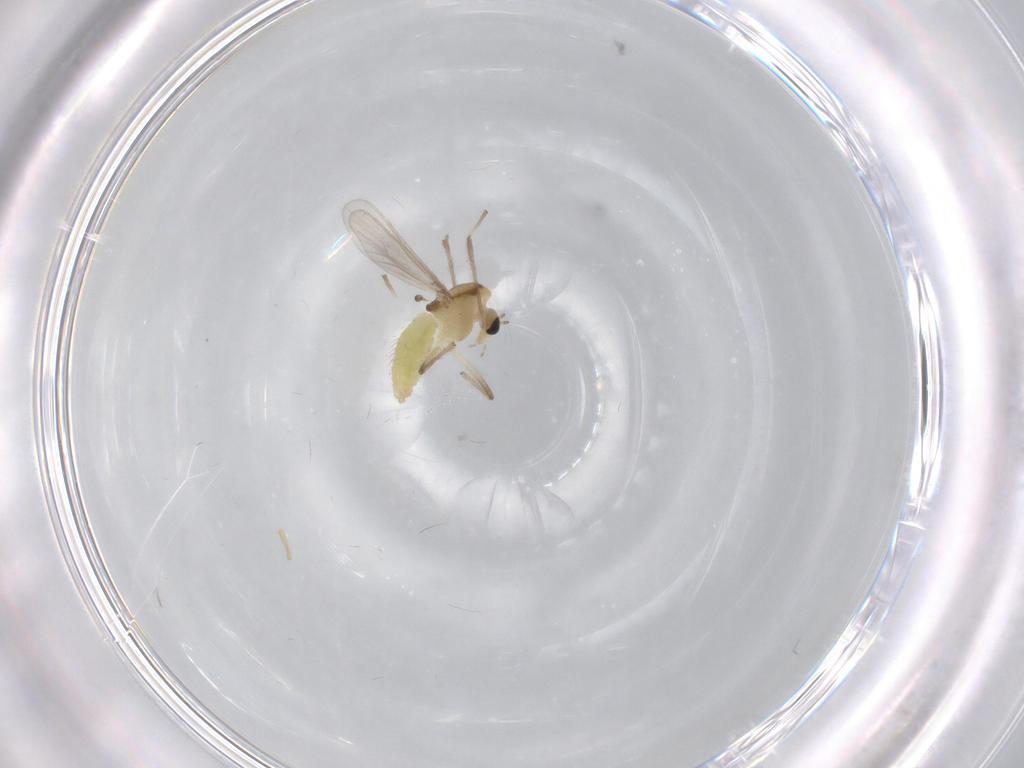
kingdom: Animalia
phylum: Arthropoda
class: Insecta
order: Diptera
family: Chironomidae
